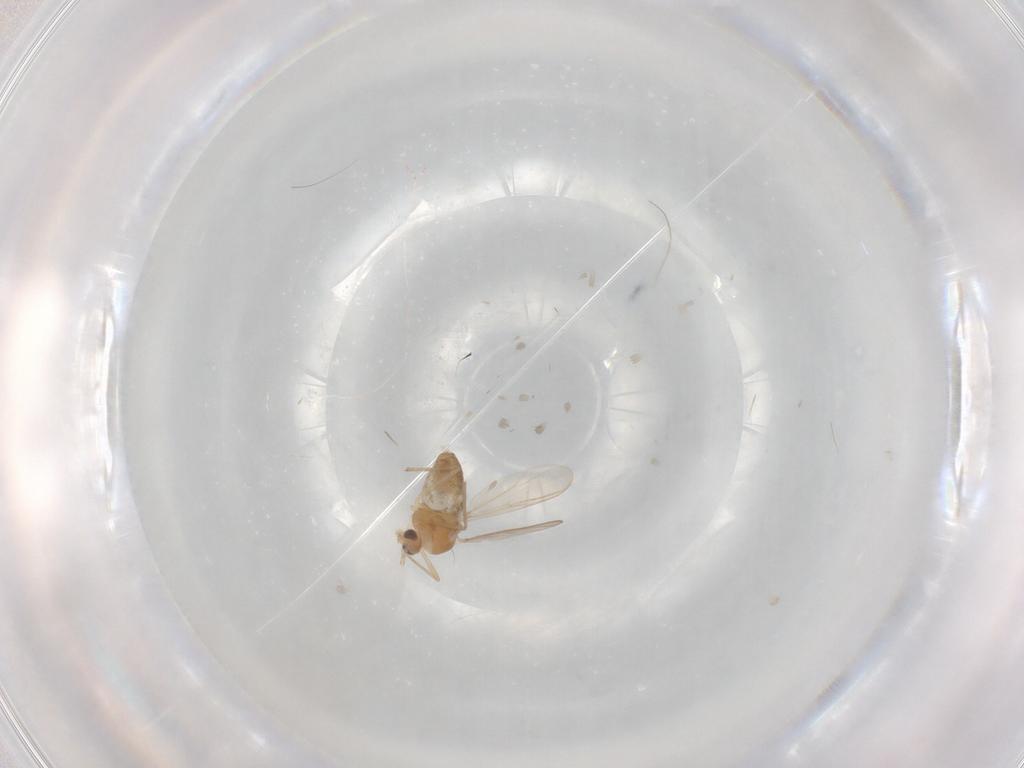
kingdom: Animalia
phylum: Arthropoda
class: Insecta
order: Diptera
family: Chironomidae
